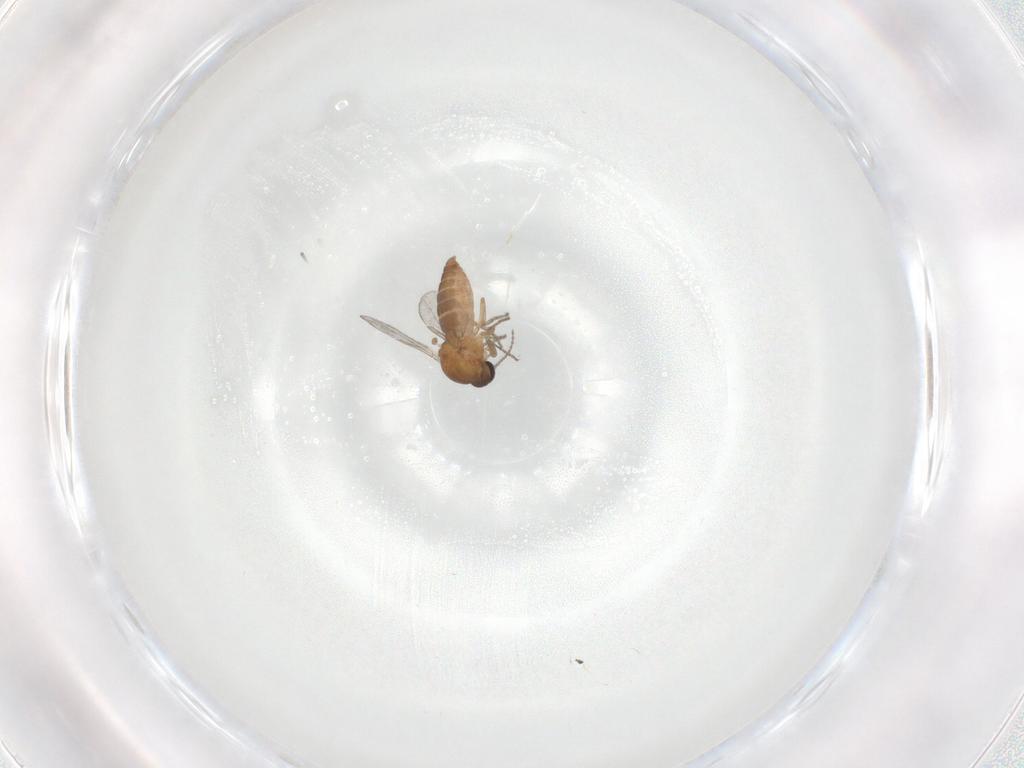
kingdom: Animalia
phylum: Arthropoda
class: Insecta
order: Diptera
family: Ceratopogonidae
